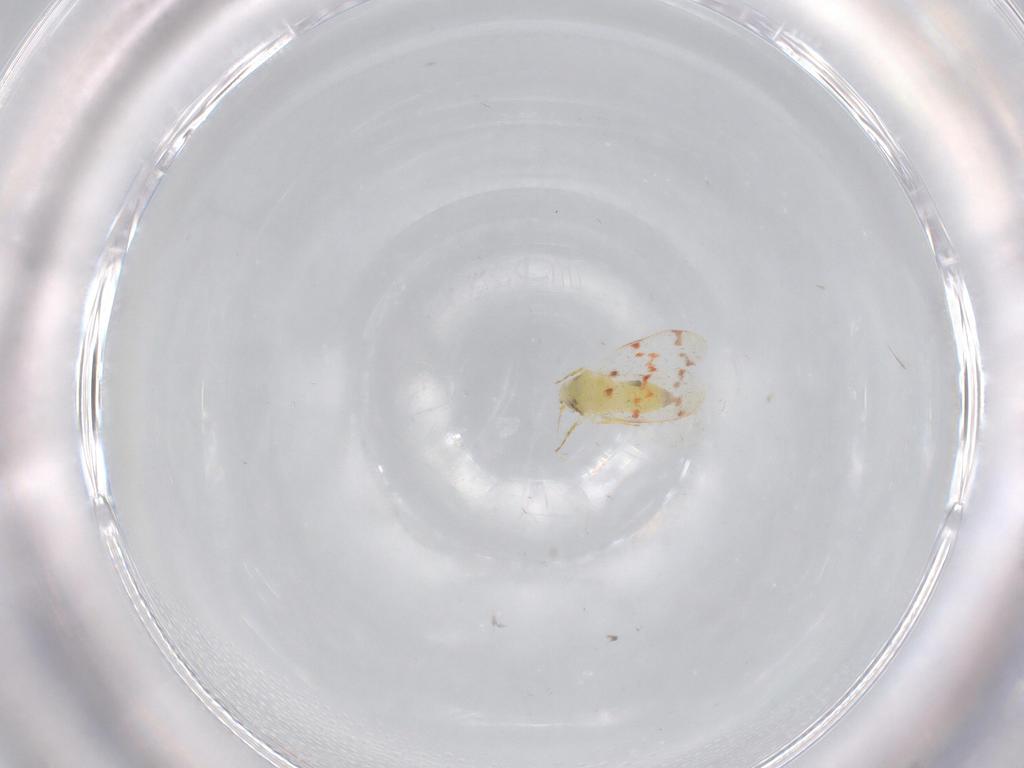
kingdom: Animalia
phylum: Arthropoda
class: Insecta
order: Hemiptera
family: Aleyrodidae
